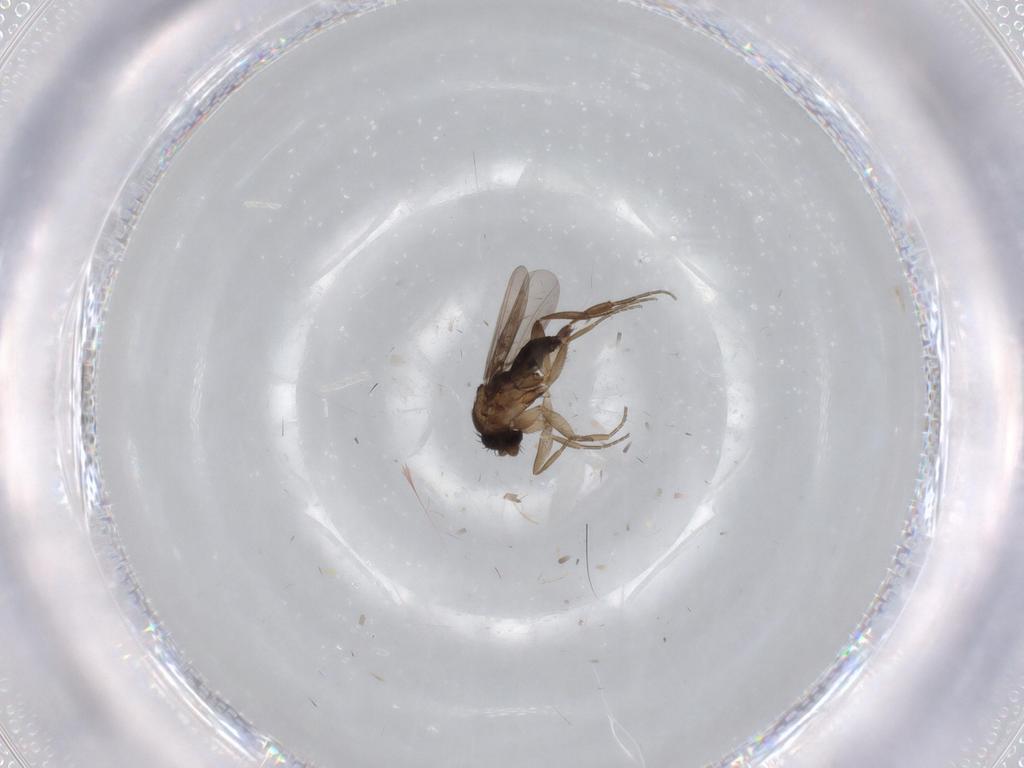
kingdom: Animalia
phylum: Arthropoda
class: Insecta
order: Diptera
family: Phoridae
